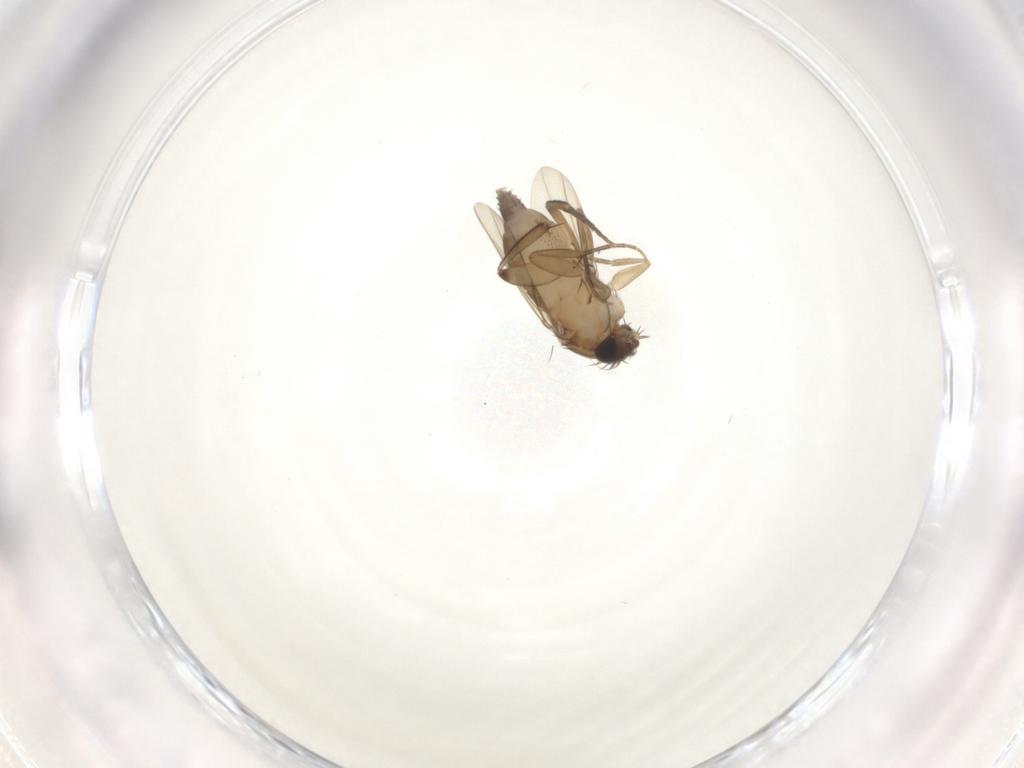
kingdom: Animalia
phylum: Arthropoda
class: Insecta
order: Diptera
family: Phoridae
